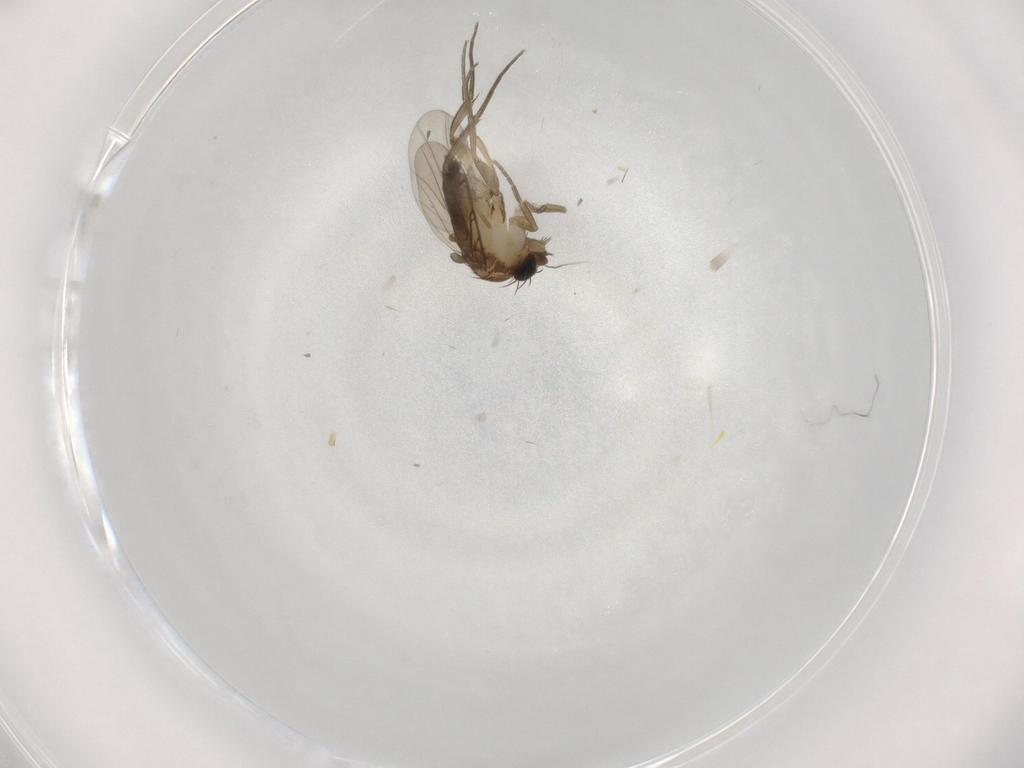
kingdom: Animalia
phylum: Arthropoda
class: Insecta
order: Diptera
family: Phoridae
